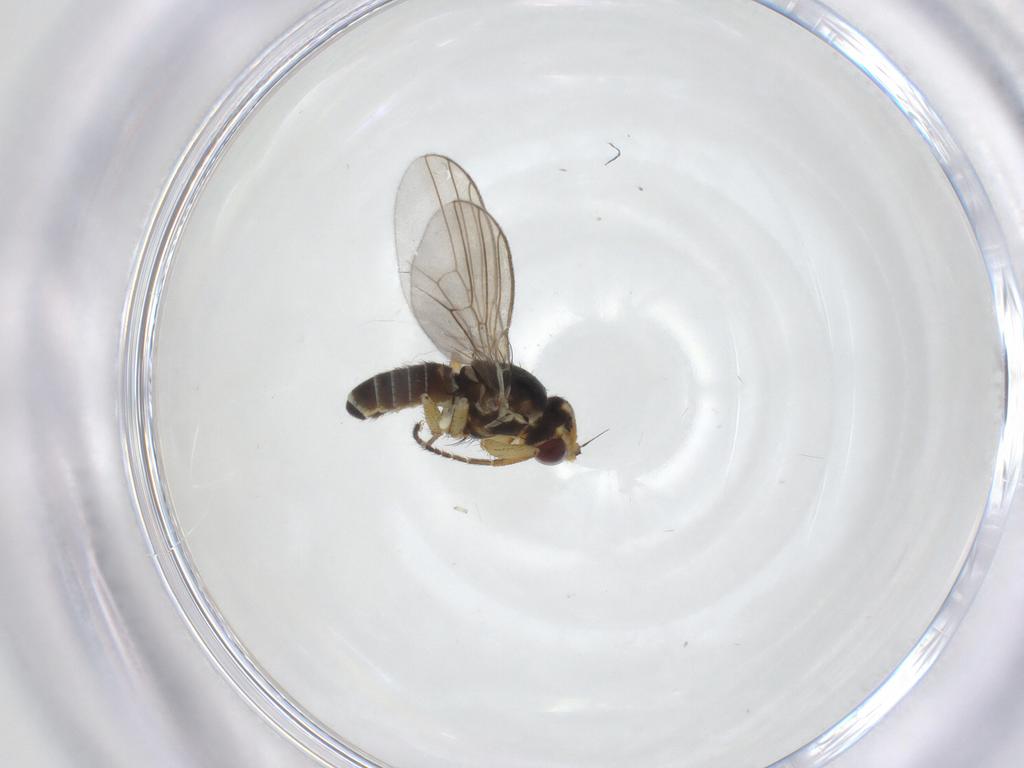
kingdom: Animalia
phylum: Arthropoda
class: Insecta
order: Diptera
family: Agromyzidae
